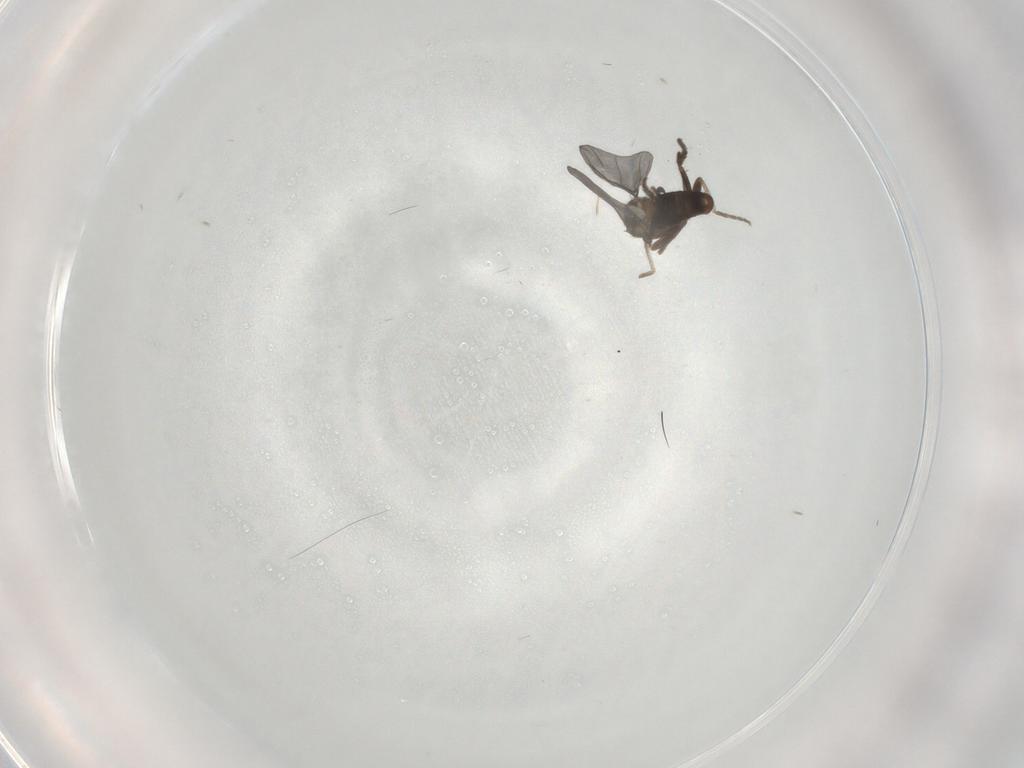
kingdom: Animalia
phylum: Arthropoda
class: Insecta
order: Diptera
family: Phoridae
